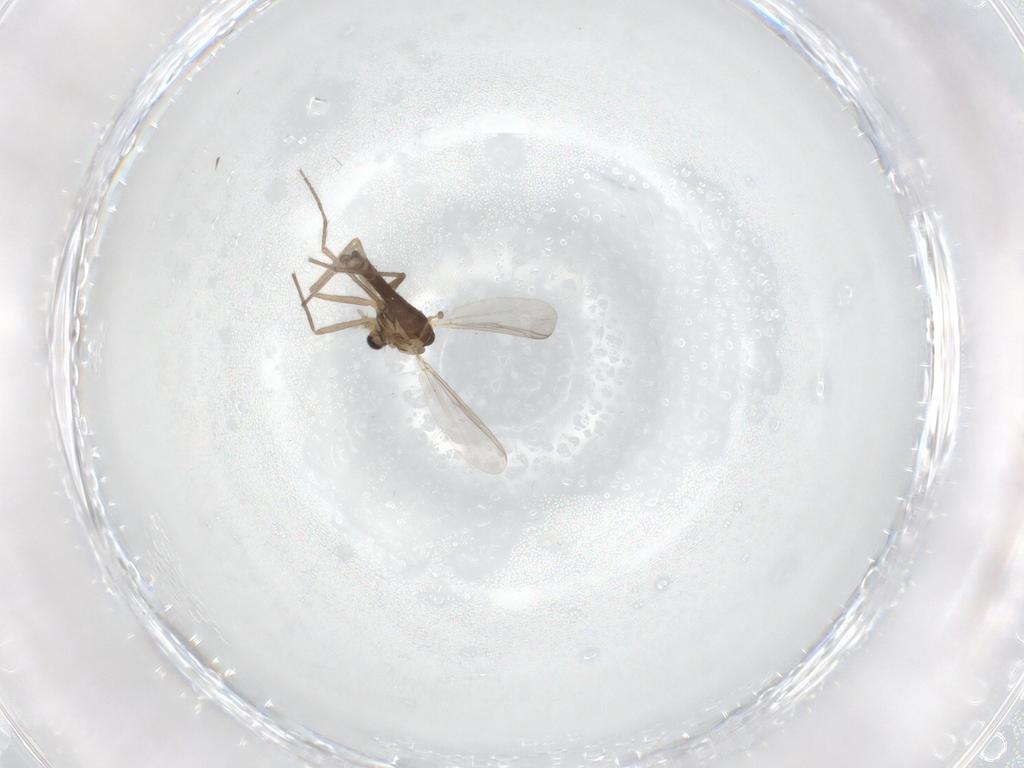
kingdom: Animalia
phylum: Arthropoda
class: Insecta
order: Diptera
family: Chironomidae
